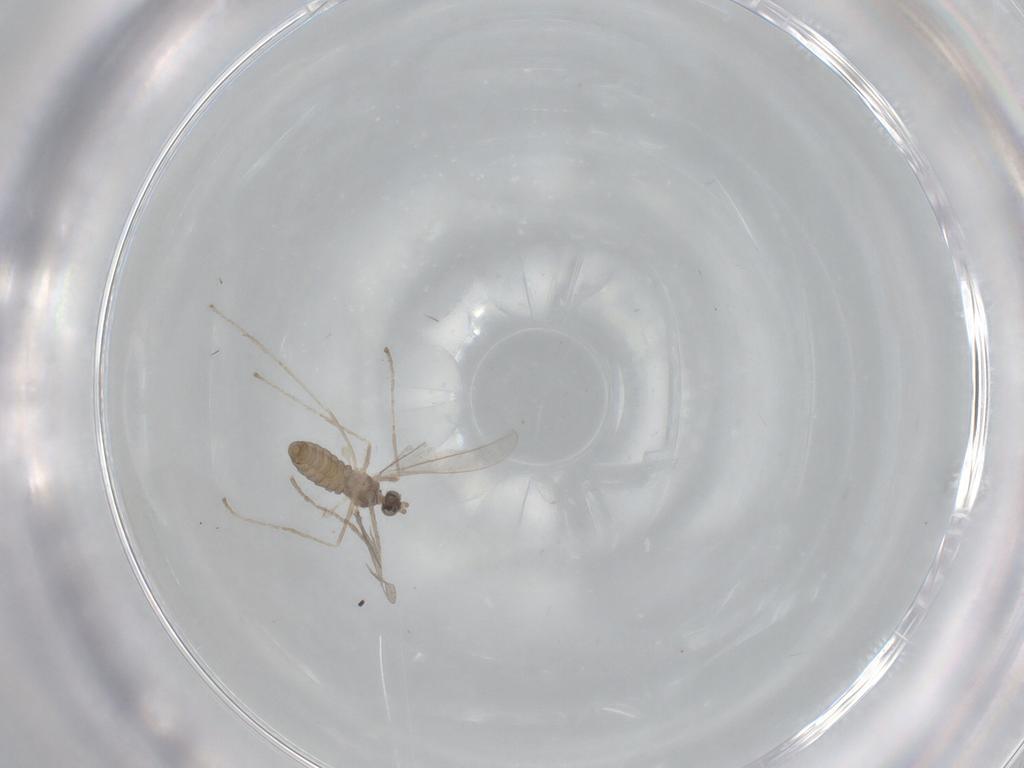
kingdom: Animalia
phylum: Arthropoda
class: Insecta
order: Diptera
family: Cecidomyiidae
